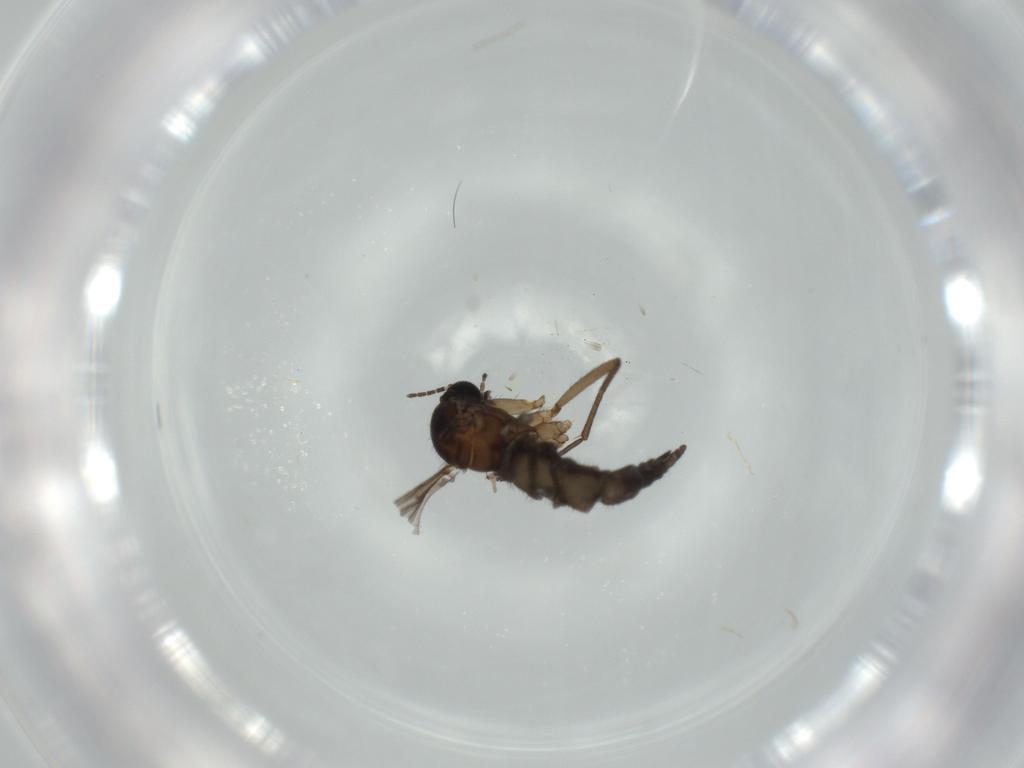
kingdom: Animalia
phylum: Arthropoda
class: Insecta
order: Diptera
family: Sciaridae
